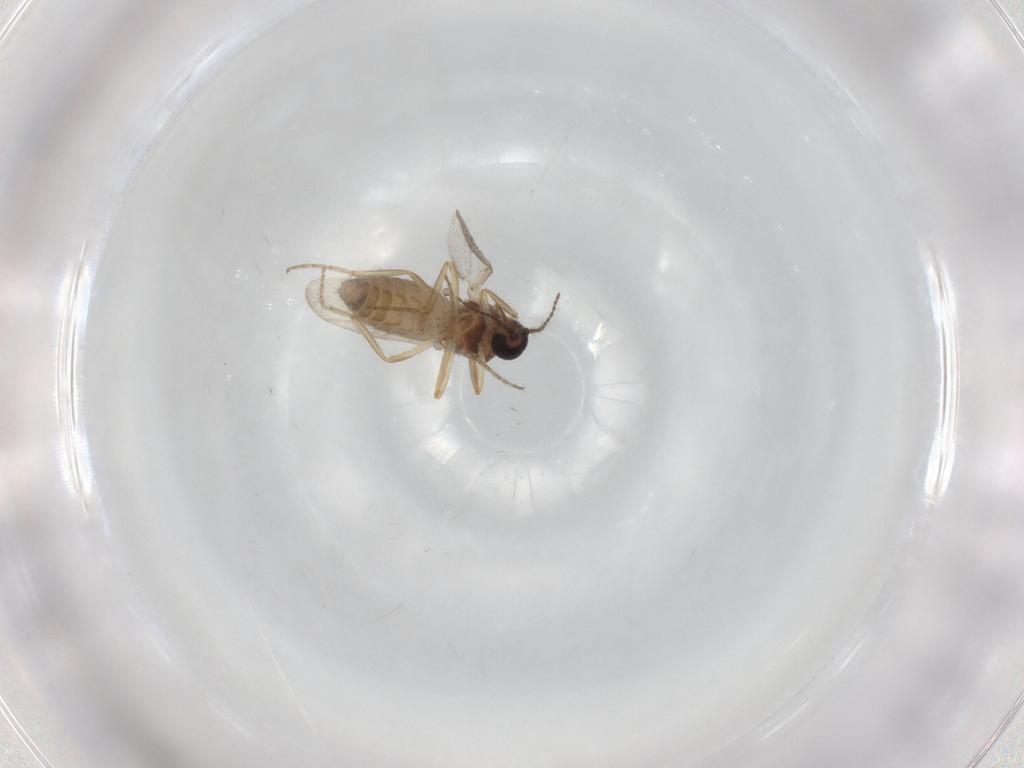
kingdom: Animalia
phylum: Arthropoda
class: Insecta
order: Diptera
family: Ceratopogonidae
